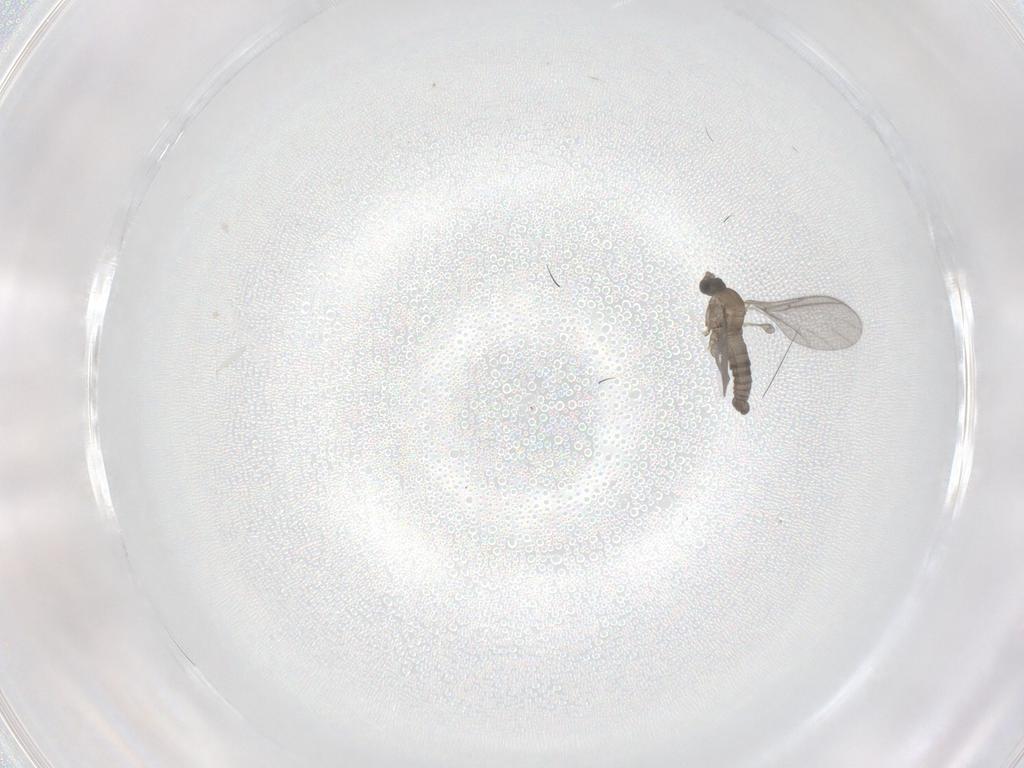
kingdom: Animalia
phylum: Arthropoda
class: Insecta
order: Diptera
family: Sciaridae
